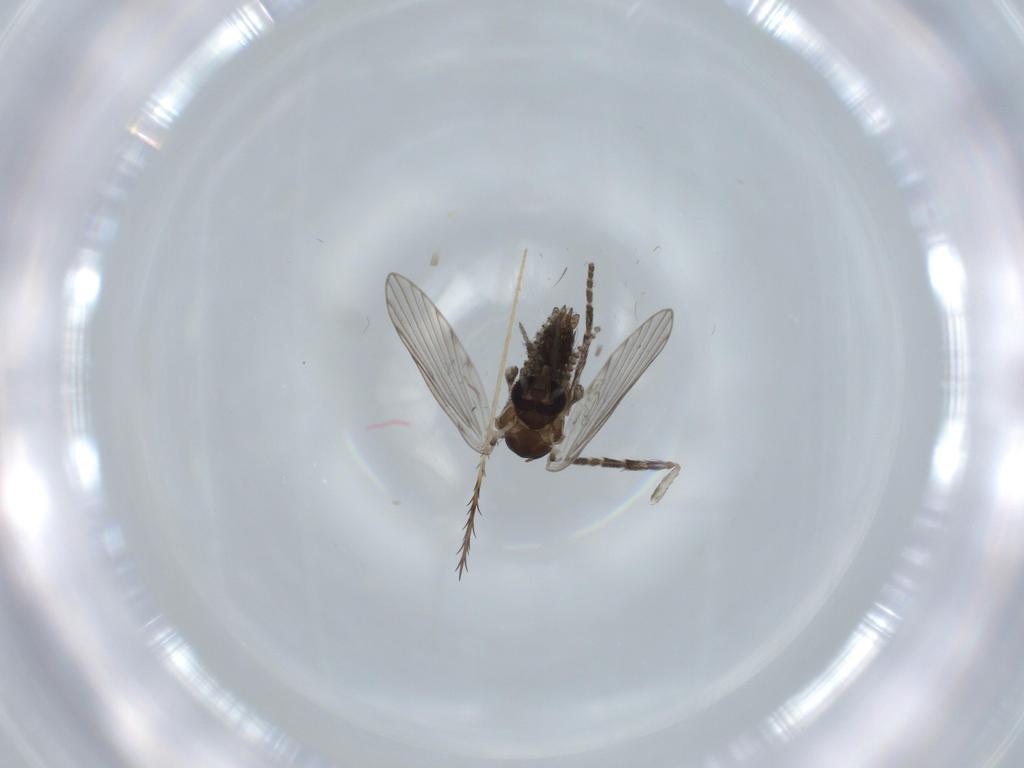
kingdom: Animalia
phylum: Arthropoda
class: Insecta
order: Diptera
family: Psychodidae
